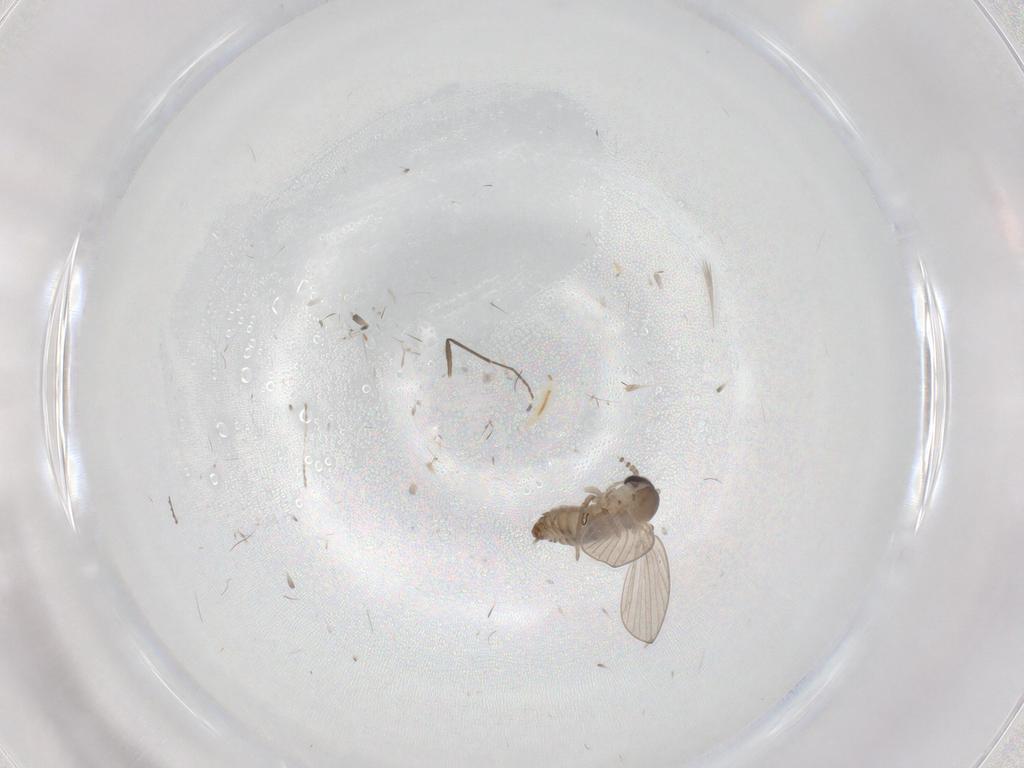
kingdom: Animalia
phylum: Arthropoda
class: Insecta
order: Diptera
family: Psychodidae
